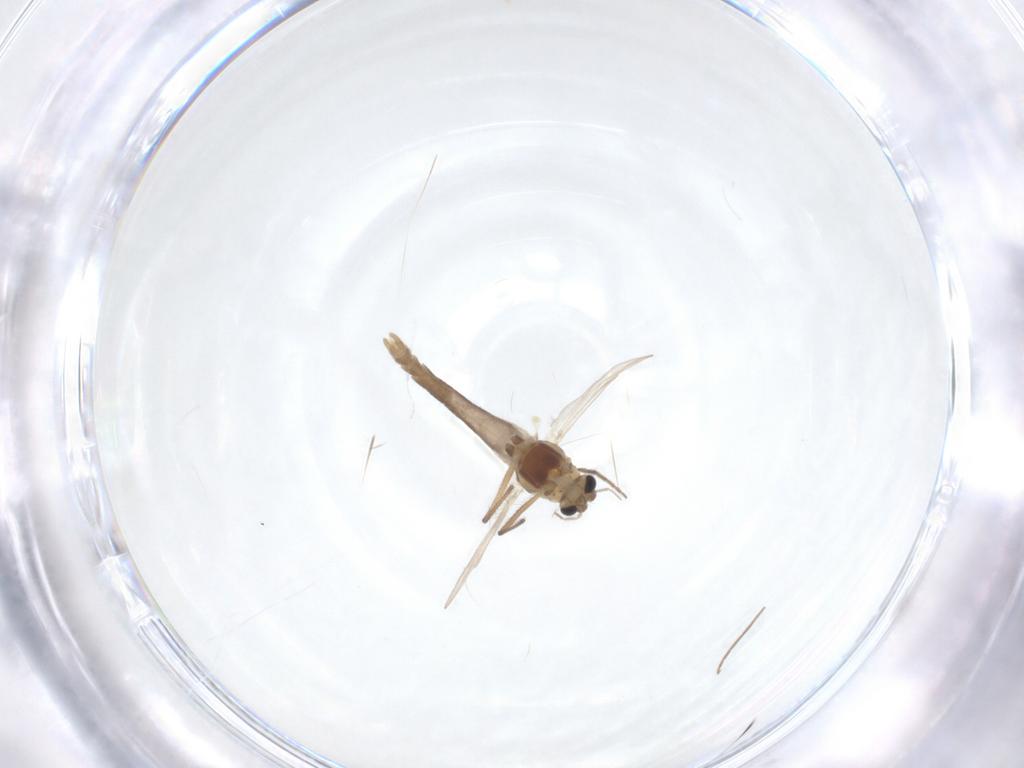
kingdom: Animalia
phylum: Arthropoda
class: Insecta
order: Diptera
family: Chironomidae
